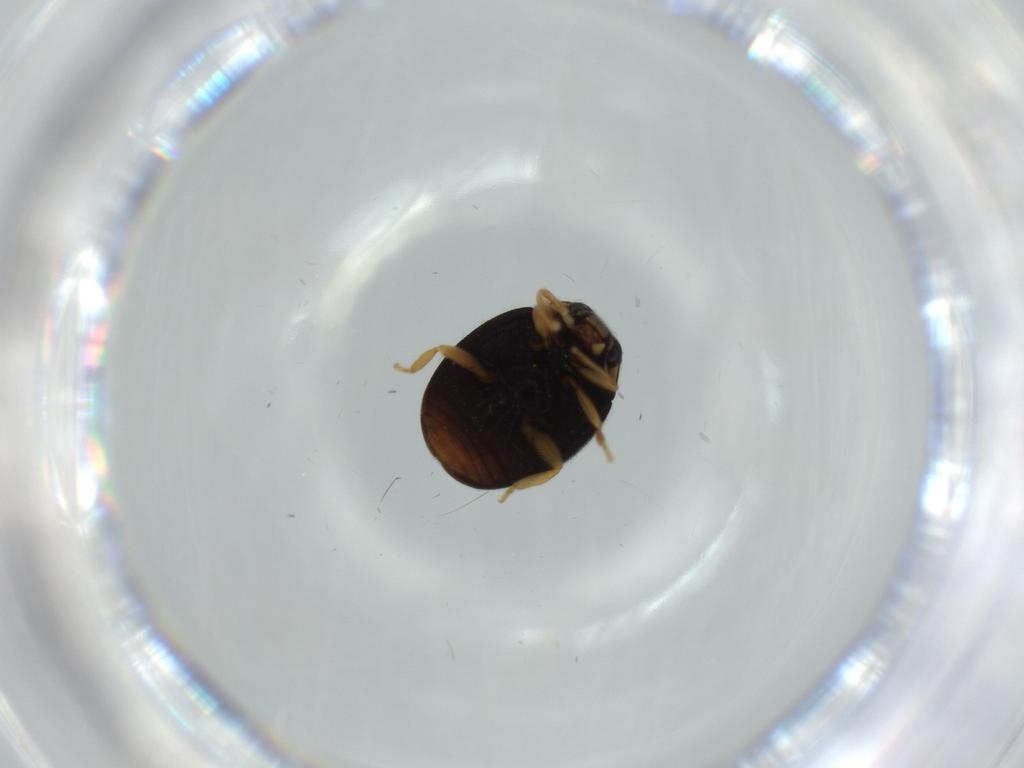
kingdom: Animalia
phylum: Arthropoda
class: Insecta
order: Coleoptera
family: Coccinellidae
